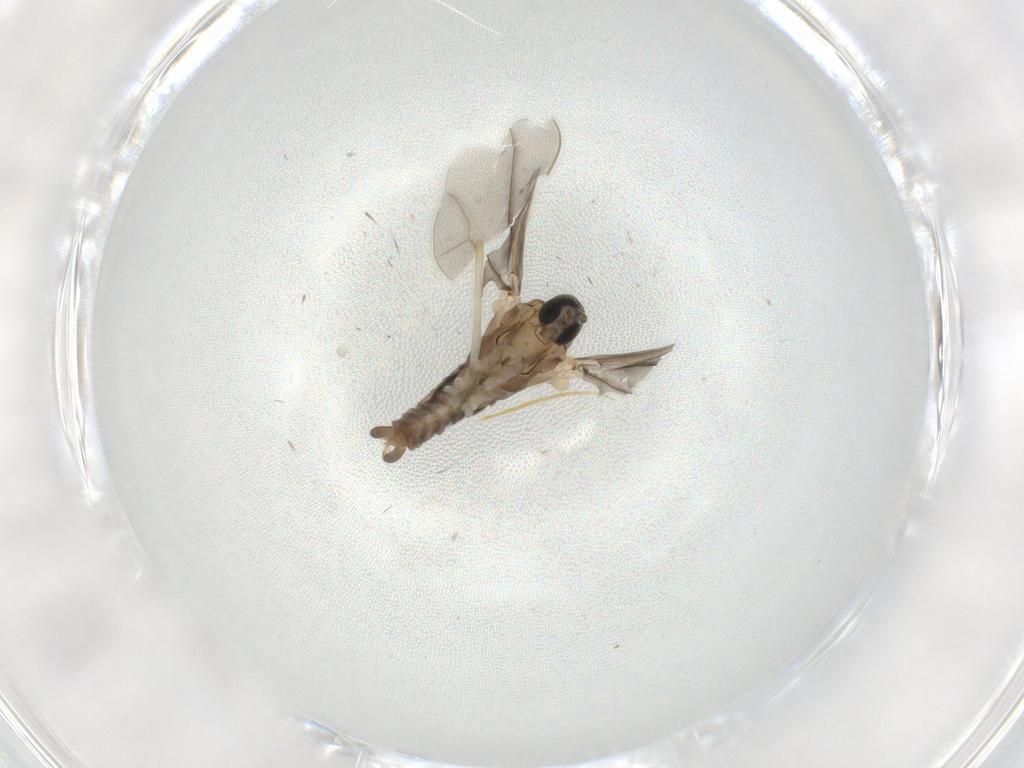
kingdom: Animalia
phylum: Arthropoda
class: Insecta
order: Diptera
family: Cecidomyiidae
